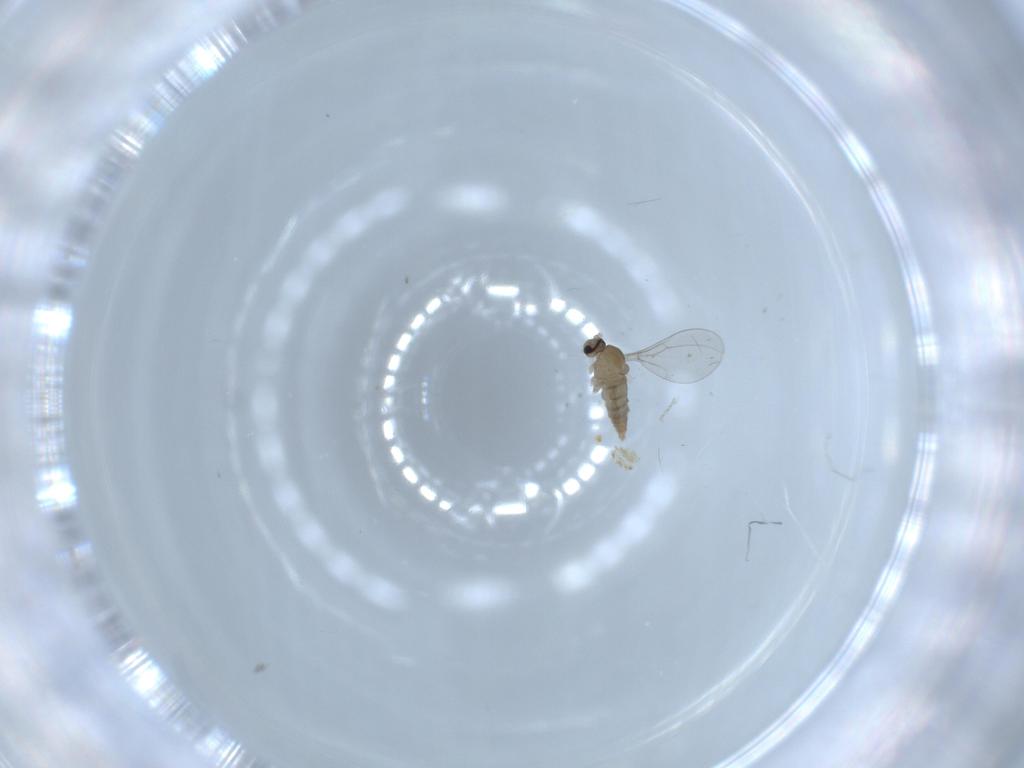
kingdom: Animalia
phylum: Arthropoda
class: Insecta
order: Diptera
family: Cecidomyiidae
